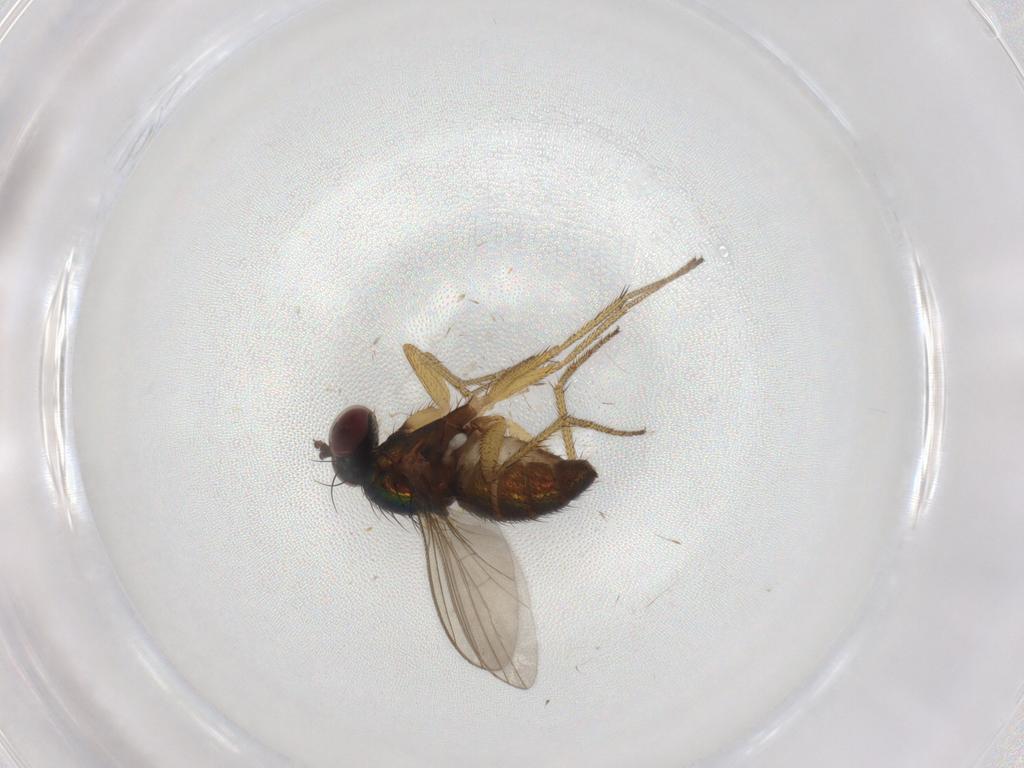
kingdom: Animalia
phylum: Arthropoda
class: Insecta
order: Diptera
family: Chironomidae
